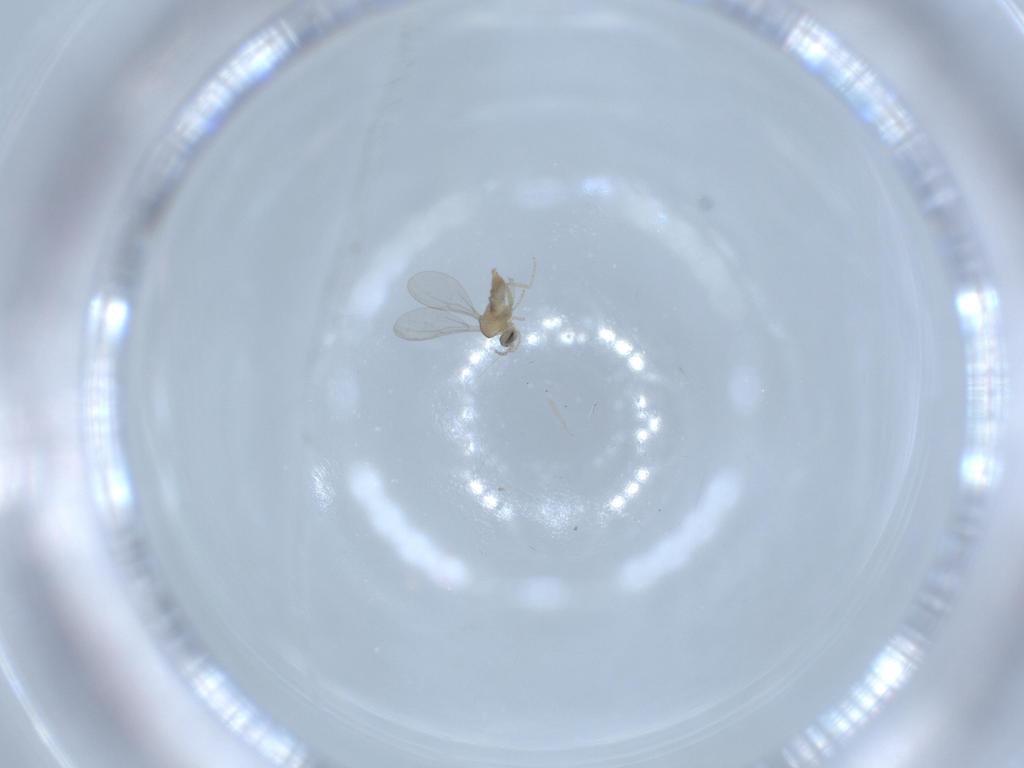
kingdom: Animalia
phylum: Arthropoda
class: Insecta
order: Diptera
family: Cecidomyiidae
